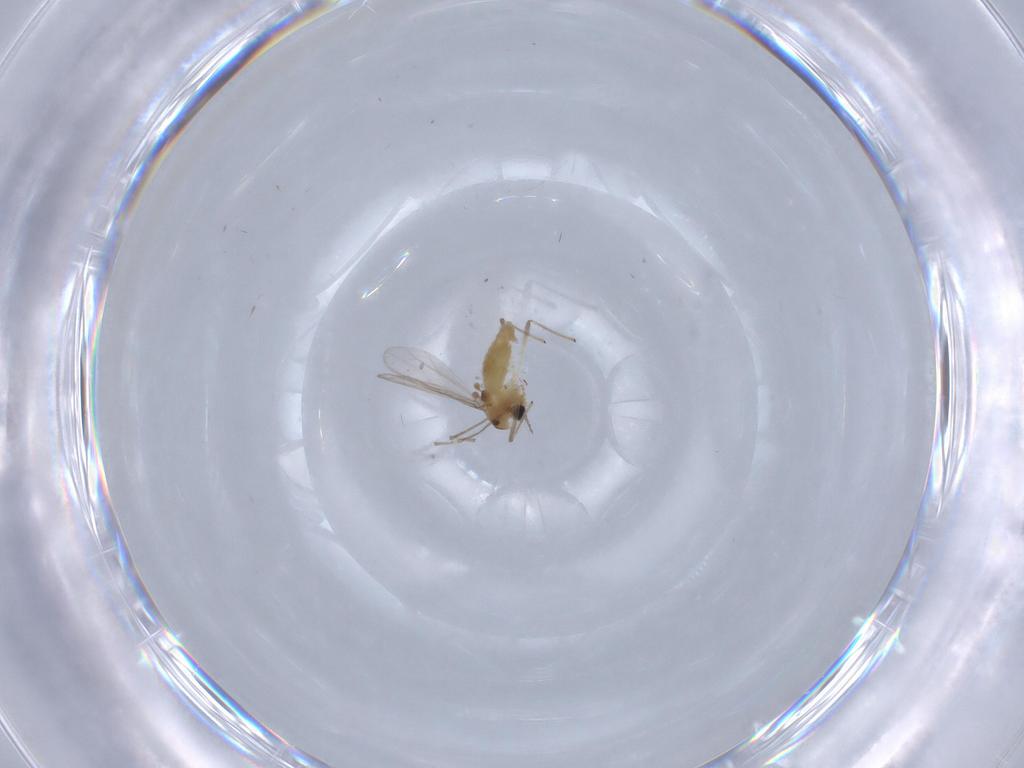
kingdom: Animalia
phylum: Arthropoda
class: Insecta
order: Diptera
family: Chironomidae
